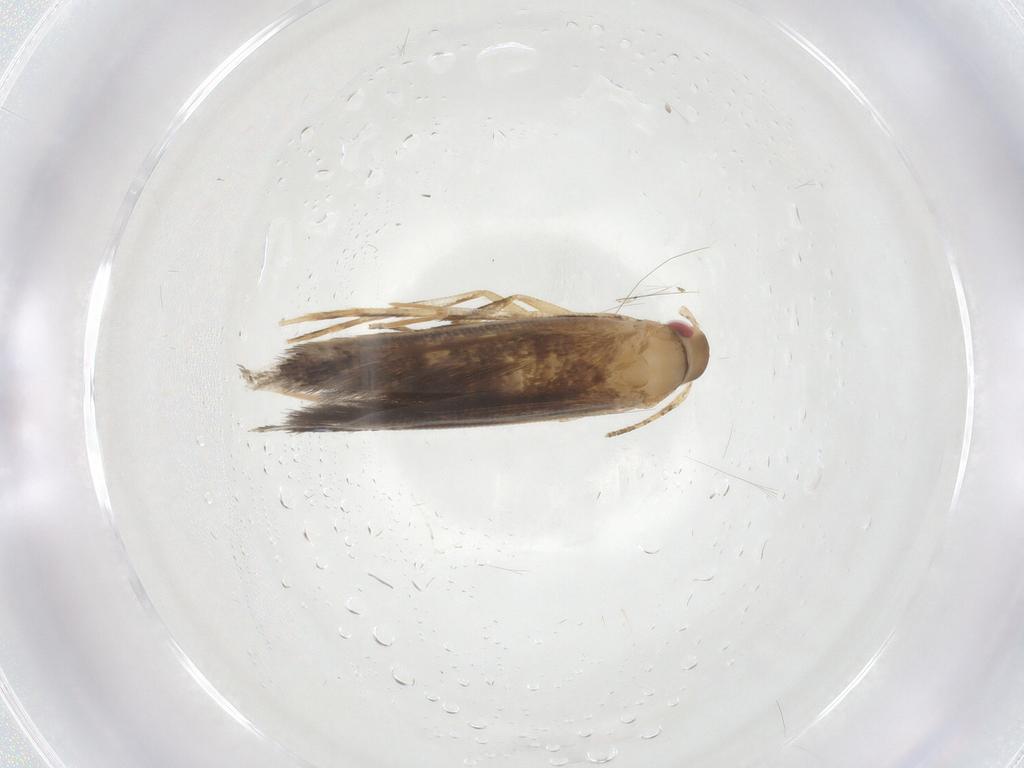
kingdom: Animalia
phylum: Arthropoda
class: Insecta
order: Lepidoptera
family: Cosmopterigidae
